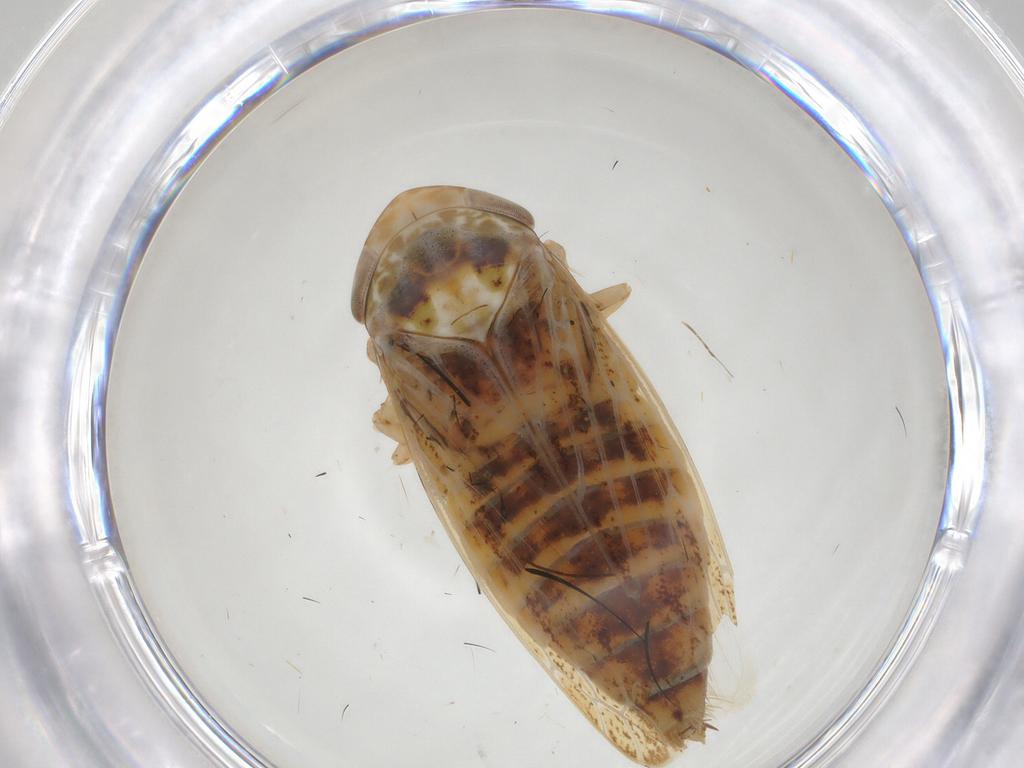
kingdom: Animalia
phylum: Arthropoda
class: Insecta
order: Hemiptera
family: Cicadellidae
